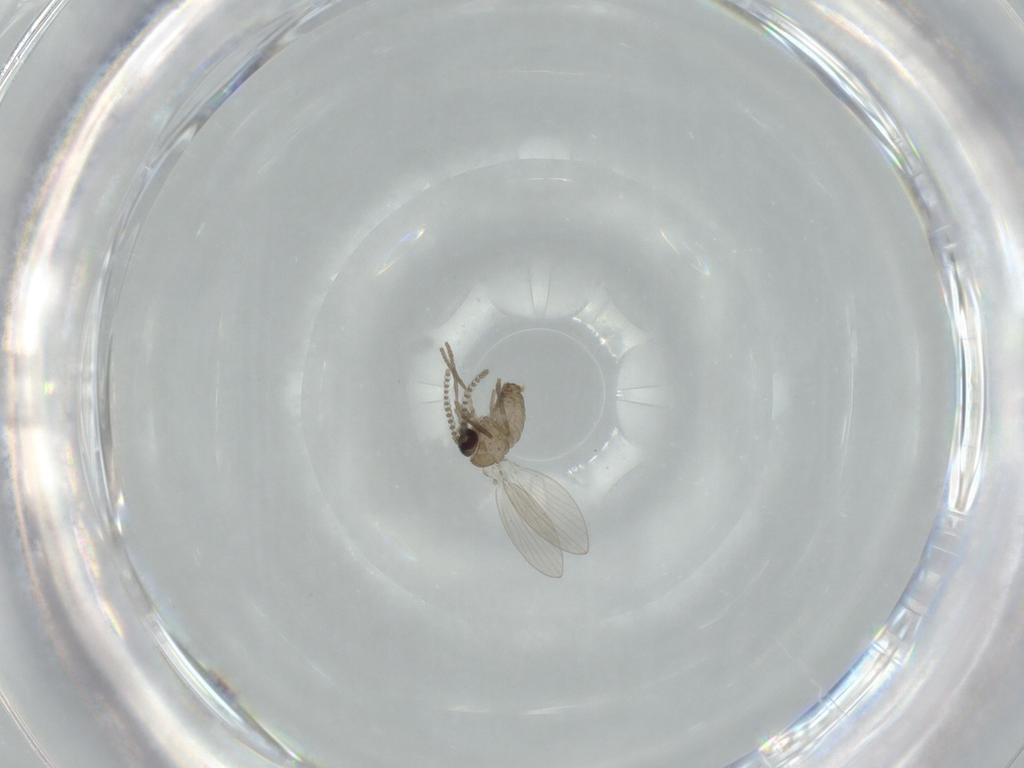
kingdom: Animalia
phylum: Arthropoda
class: Insecta
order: Diptera
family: Psychodidae
